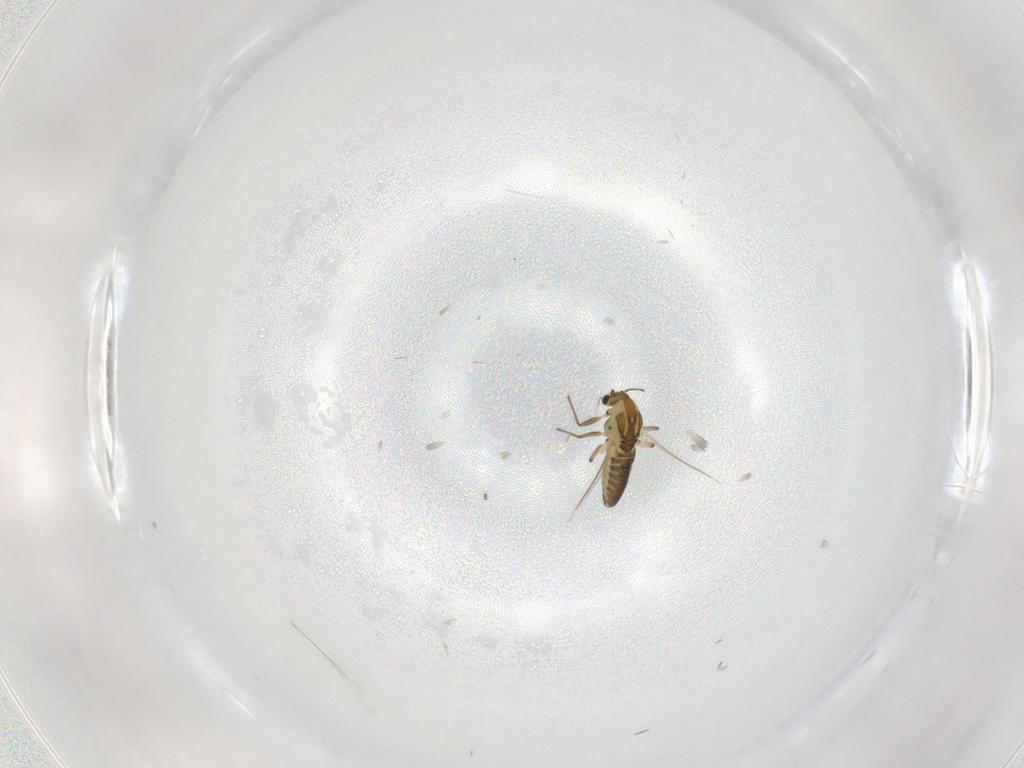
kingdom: Animalia
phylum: Arthropoda
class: Insecta
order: Diptera
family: Chironomidae
